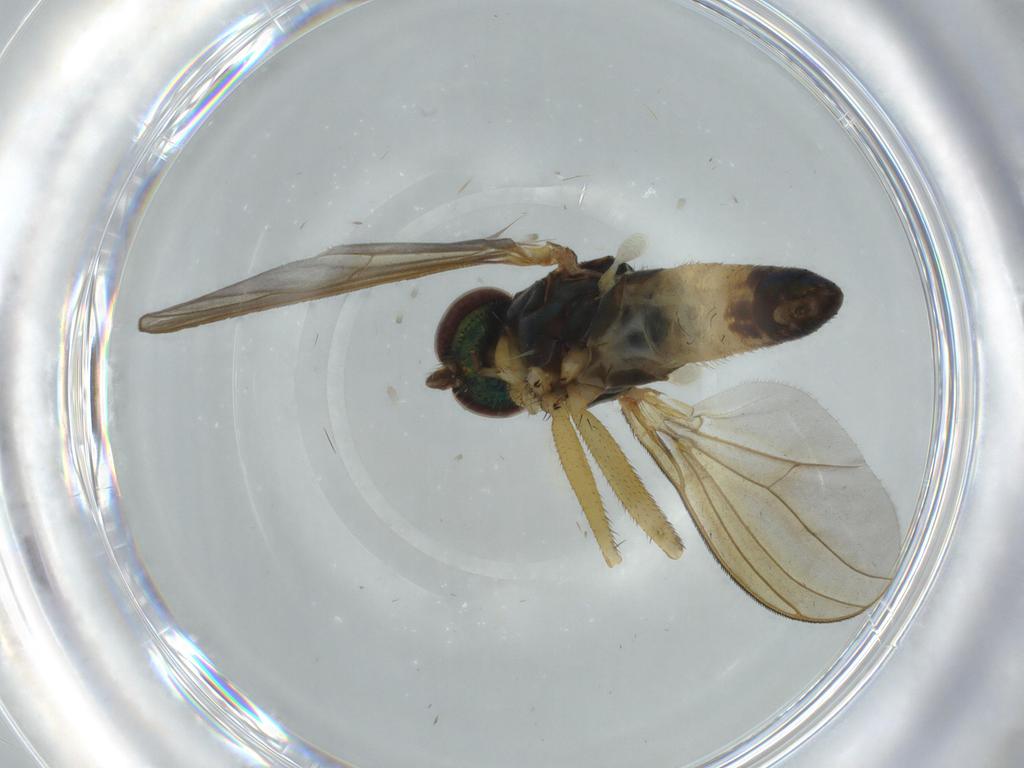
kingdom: Animalia
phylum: Arthropoda
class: Insecta
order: Diptera
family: Dolichopodidae
